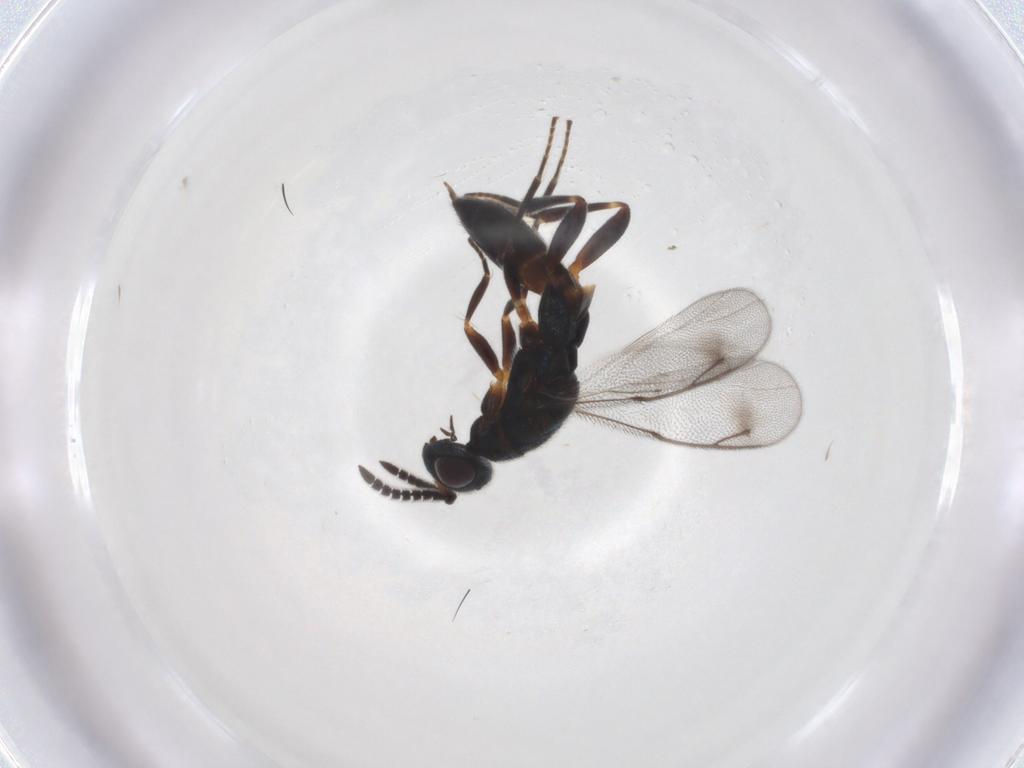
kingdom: Animalia
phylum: Arthropoda
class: Insecta
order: Hymenoptera
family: Cleonyminae
